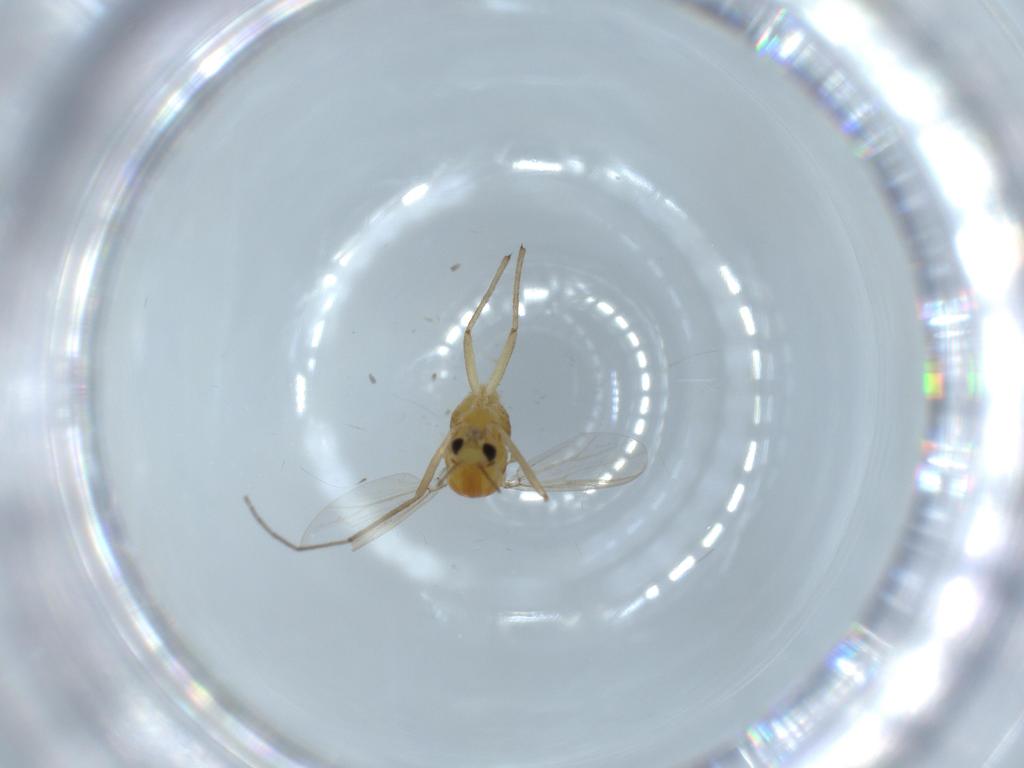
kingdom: Animalia
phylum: Arthropoda
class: Insecta
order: Diptera
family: Chironomidae
